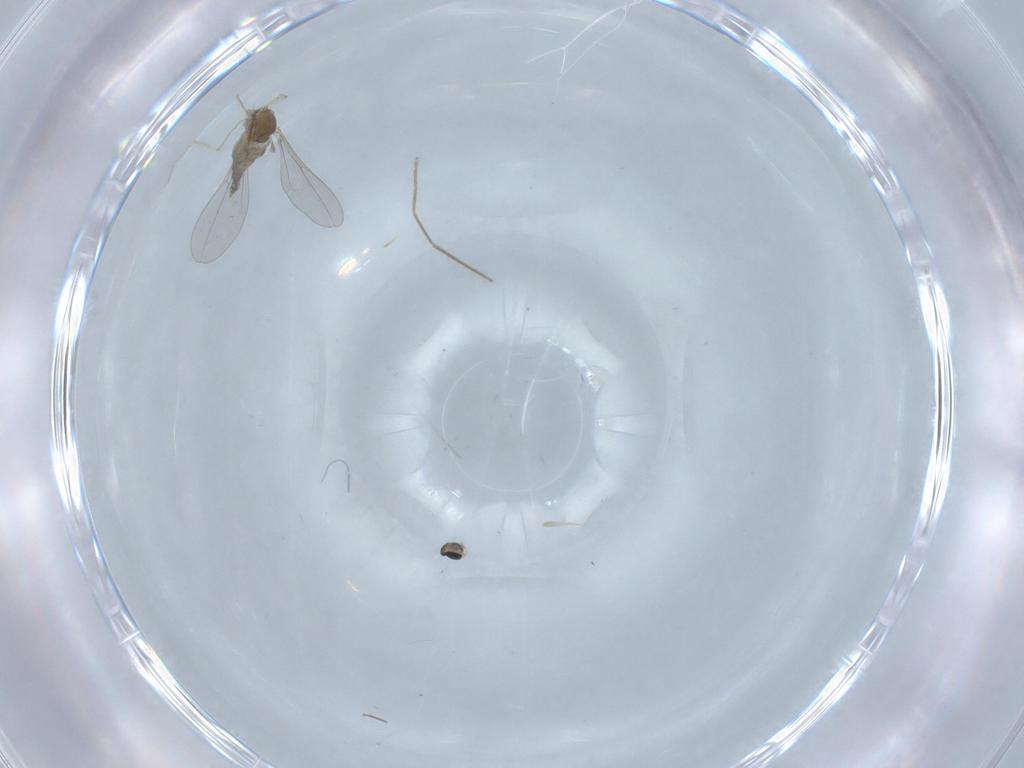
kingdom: Animalia
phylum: Arthropoda
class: Insecta
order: Diptera
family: Cecidomyiidae
